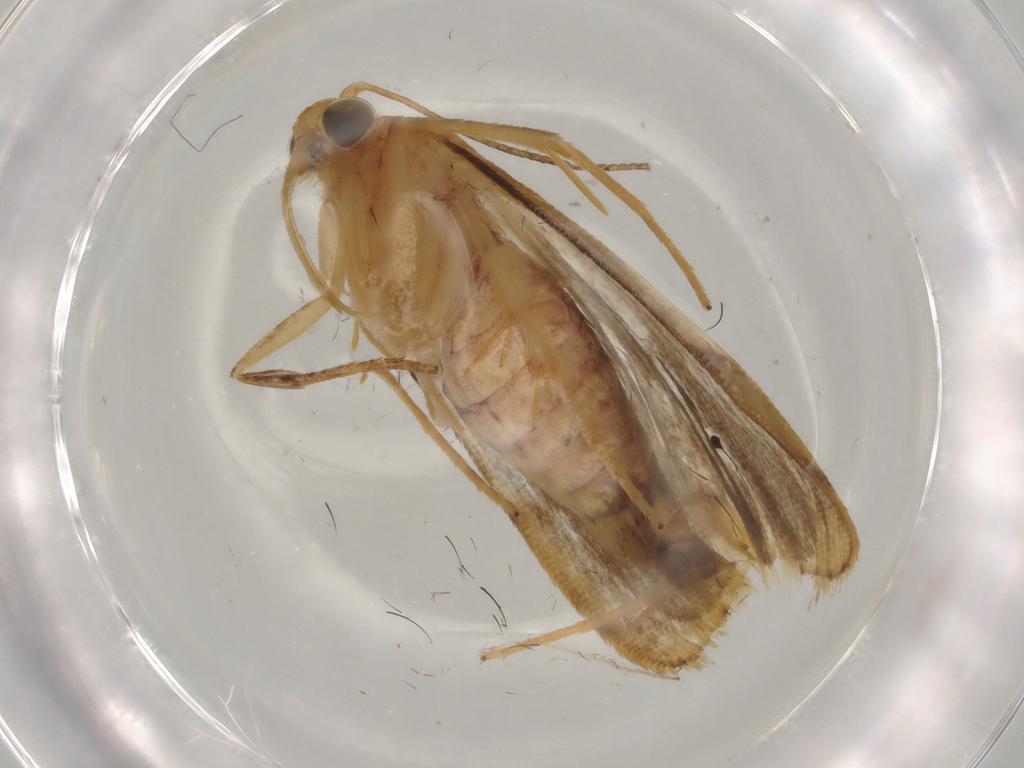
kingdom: Animalia
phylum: Arthropoda
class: Insecta
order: Lepidoptera
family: Crambidae
